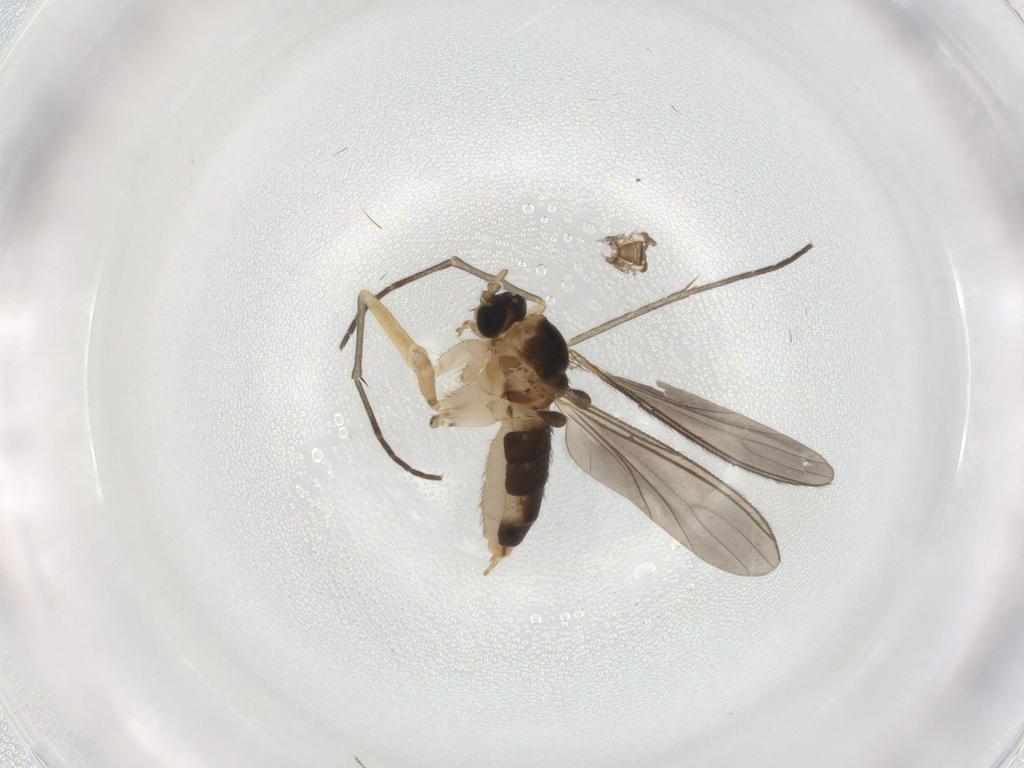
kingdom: Animalia
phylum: Arthropoda
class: Insecta
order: Diptera
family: Sciaridae
